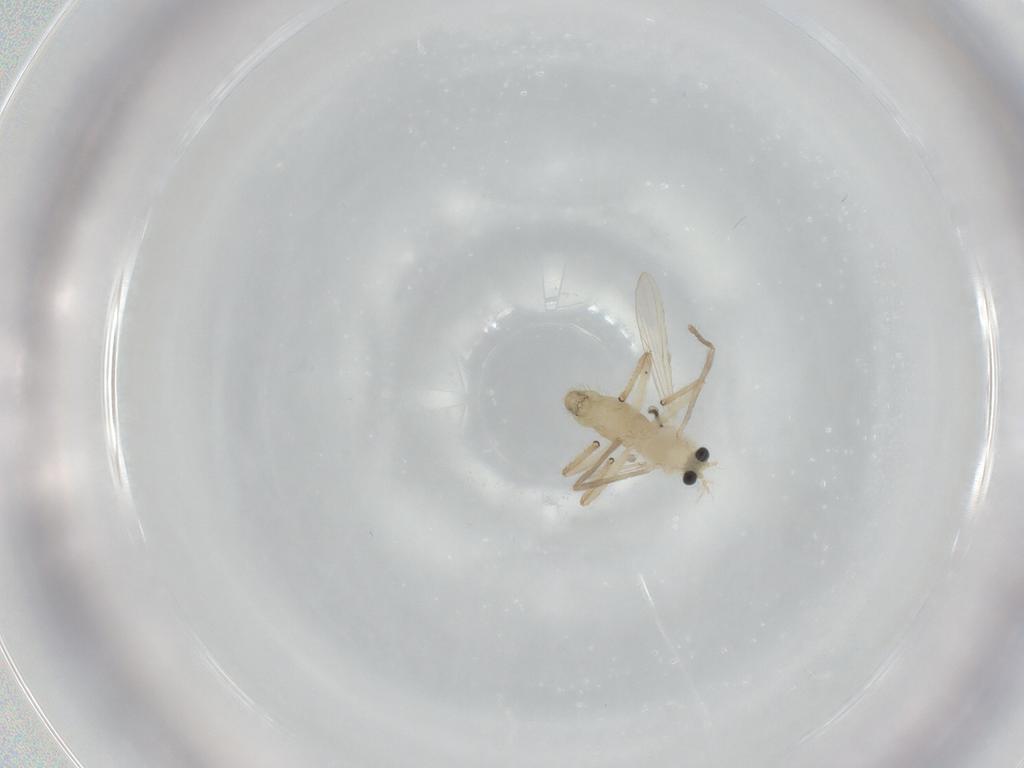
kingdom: Animalia
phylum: Arthropoda
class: Insecta
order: Diptera
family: Chironomidae
